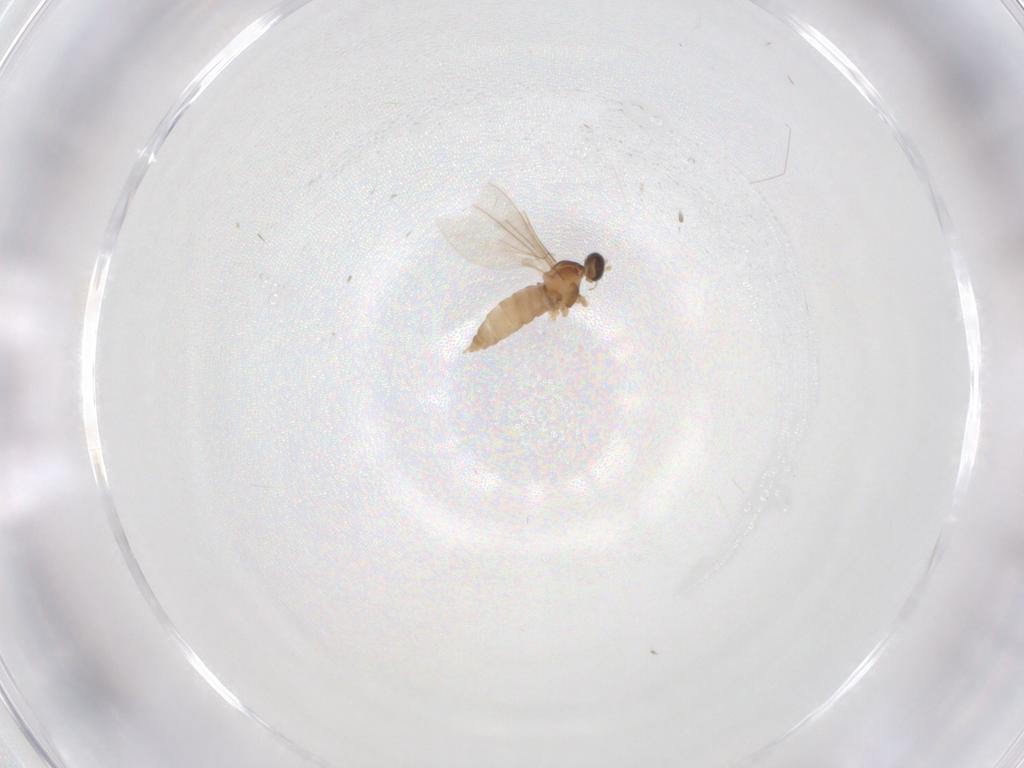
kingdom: Animalia
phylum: Arthropoda
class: Insecta
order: Diptera
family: Cecidomyiidae
